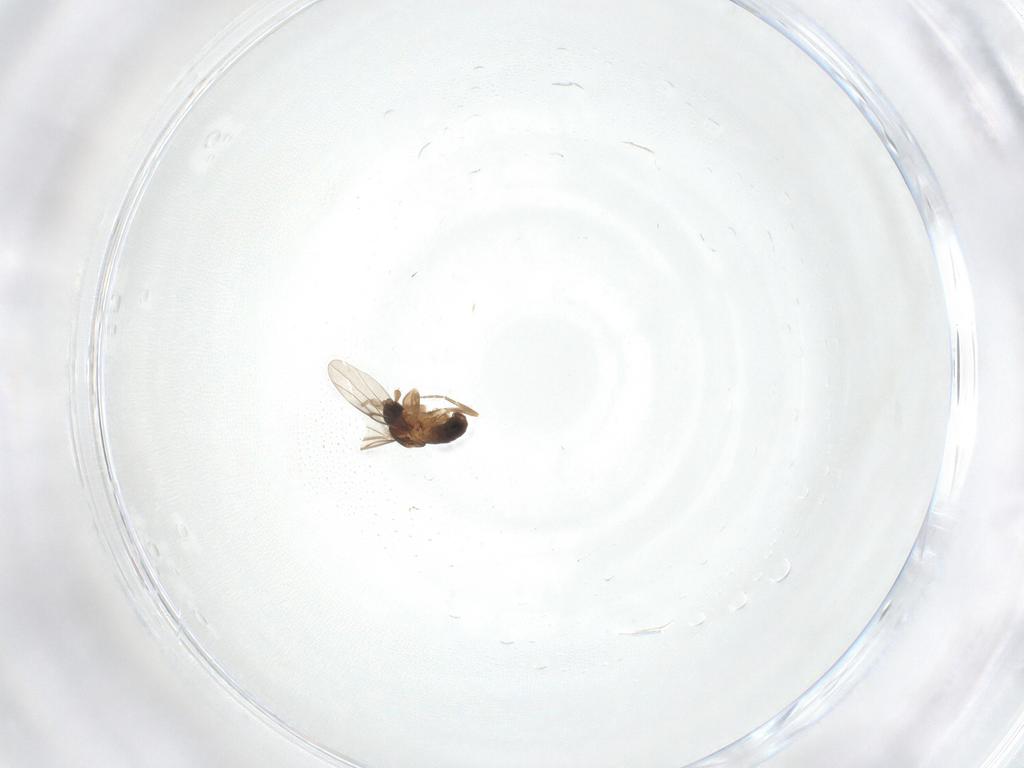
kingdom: Animalia
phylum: Arthropoda
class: Insecta
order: Diptera
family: Phoridae
